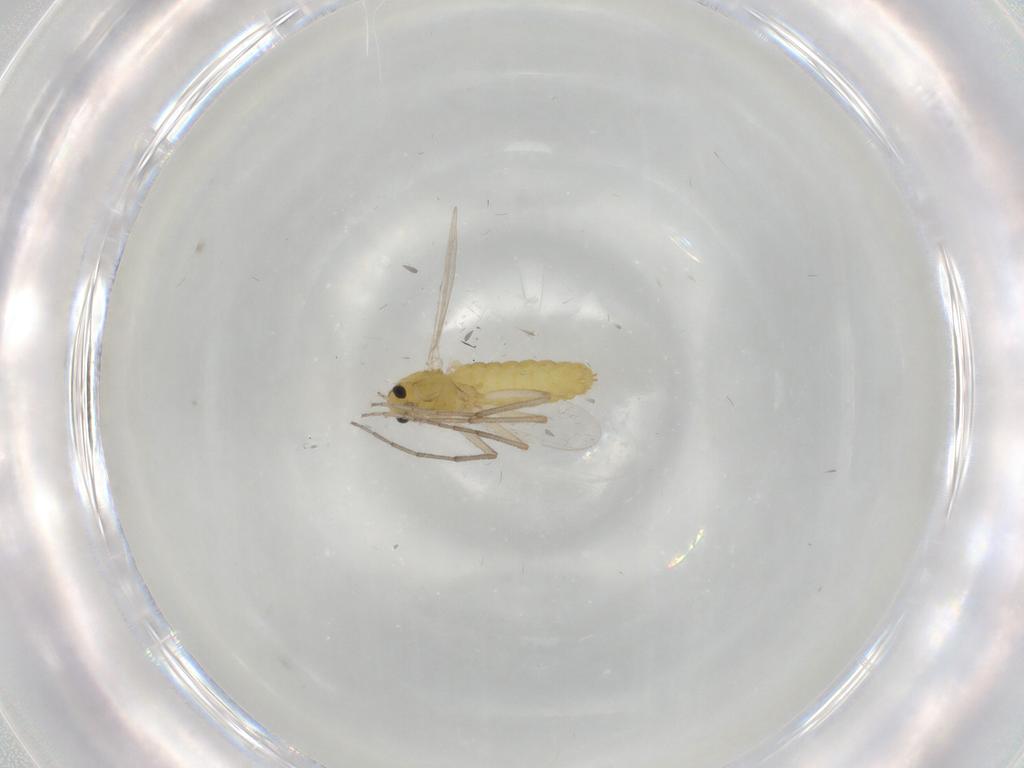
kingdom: Animalia
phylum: Arthropoda
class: Insecta
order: Diptera
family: Chironomidae
